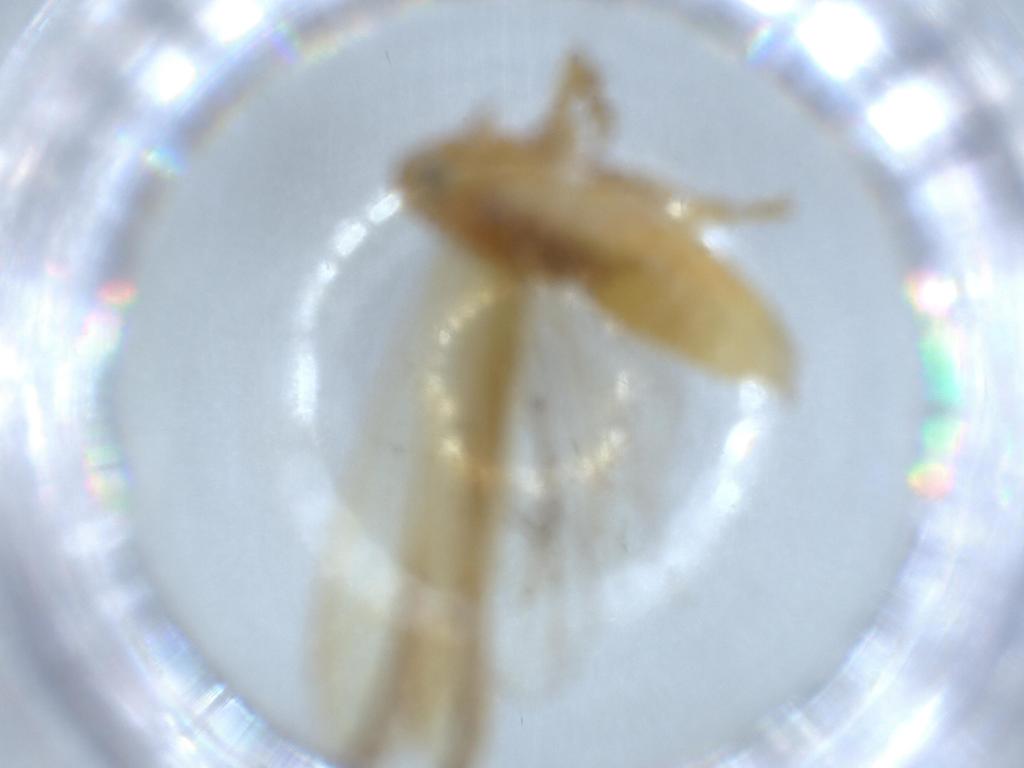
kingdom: Animalia
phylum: Arthropoda
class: Insecta
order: Hemiptera
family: Delphacidae
